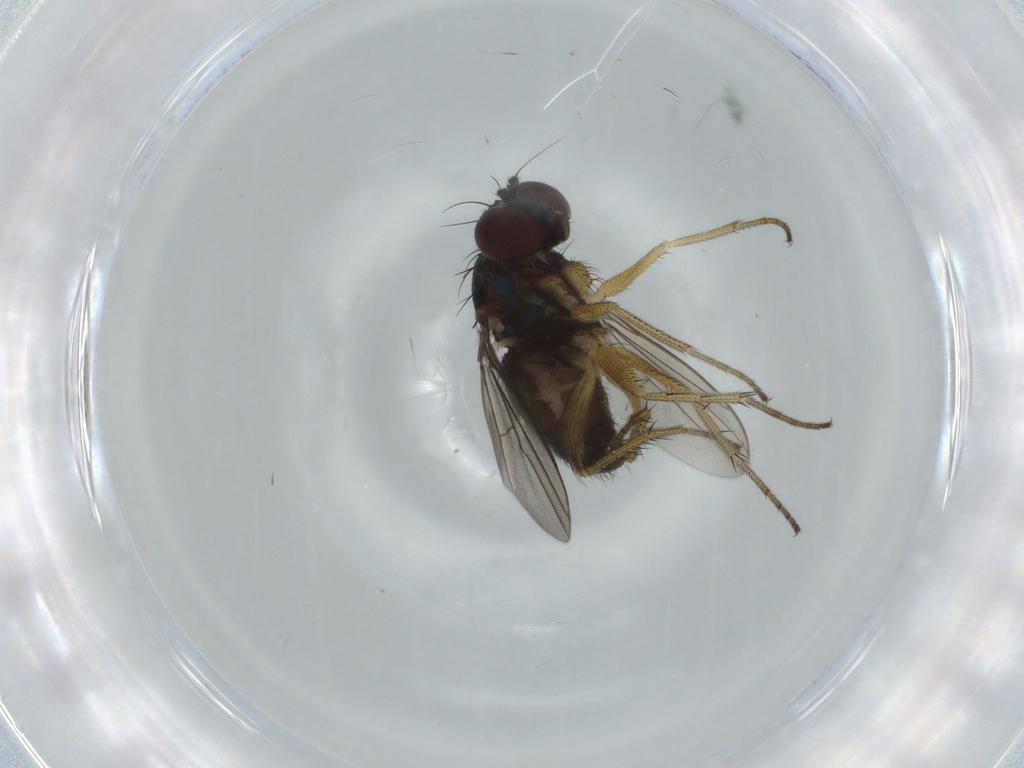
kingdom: Animalia
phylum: Arthropoda
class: Insecta
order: Diptera
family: Dolichopodidae
